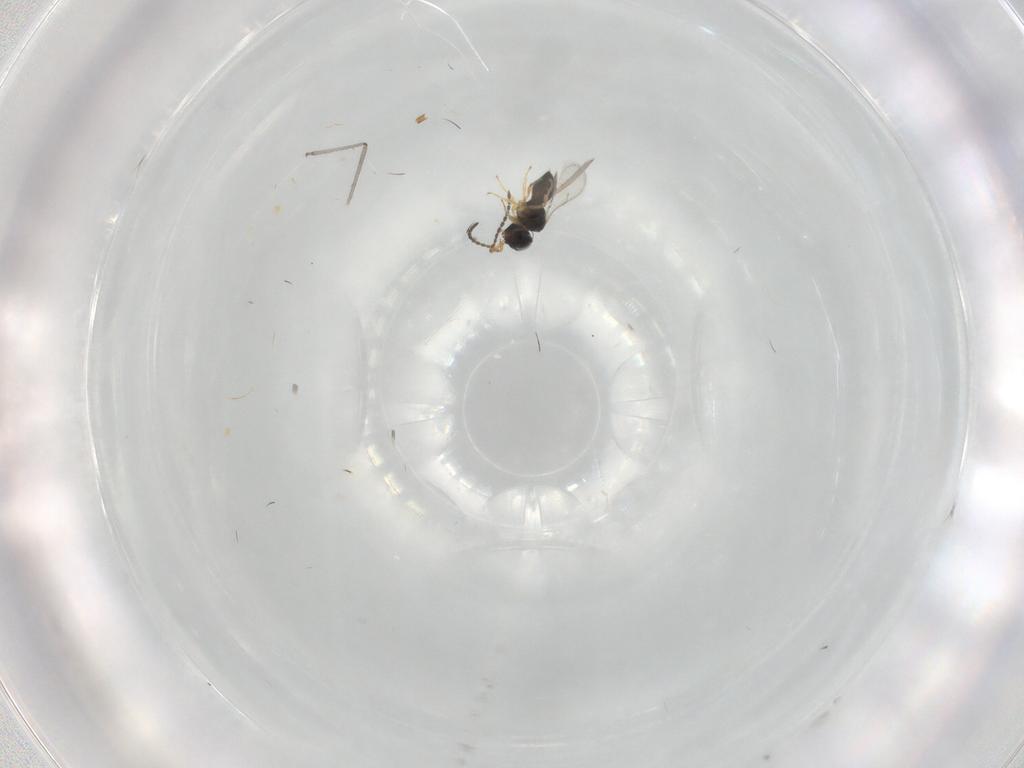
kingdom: Animalia
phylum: Arthropoda
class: Insecta
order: Hymenoptera
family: Scelionidae
